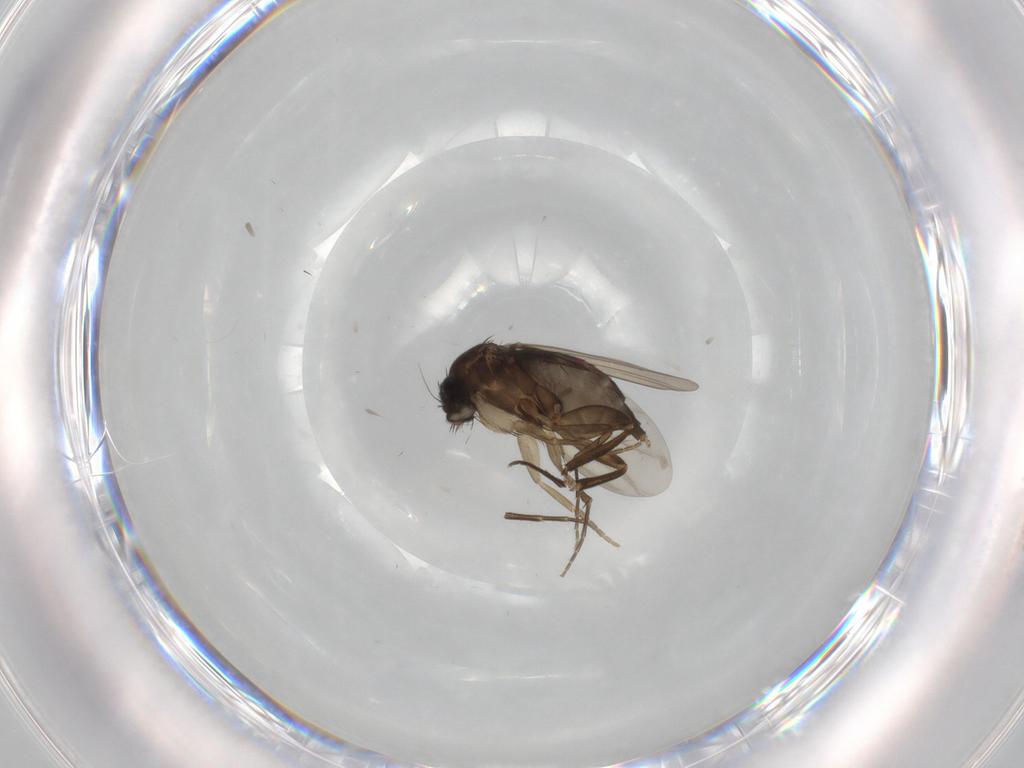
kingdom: Animalia
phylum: Arthropoda
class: Insecta
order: Diptera
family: Phoridae
